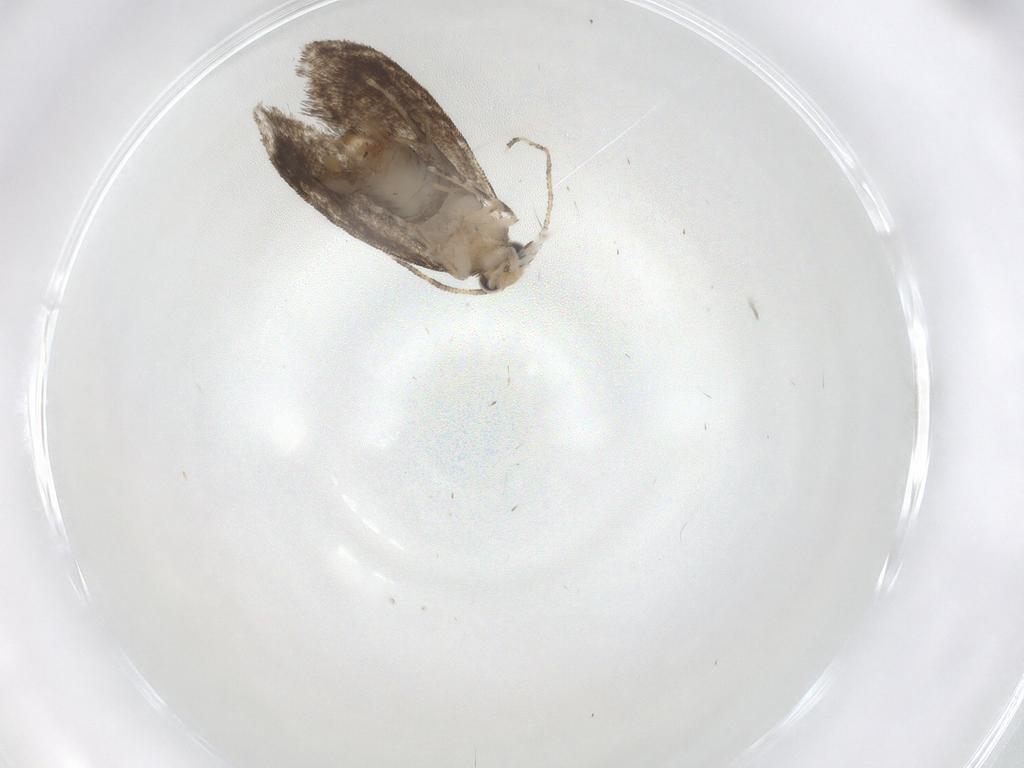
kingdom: Animalia
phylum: Arthropoda
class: Insecta
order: Lepidoptera
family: Tineidae
